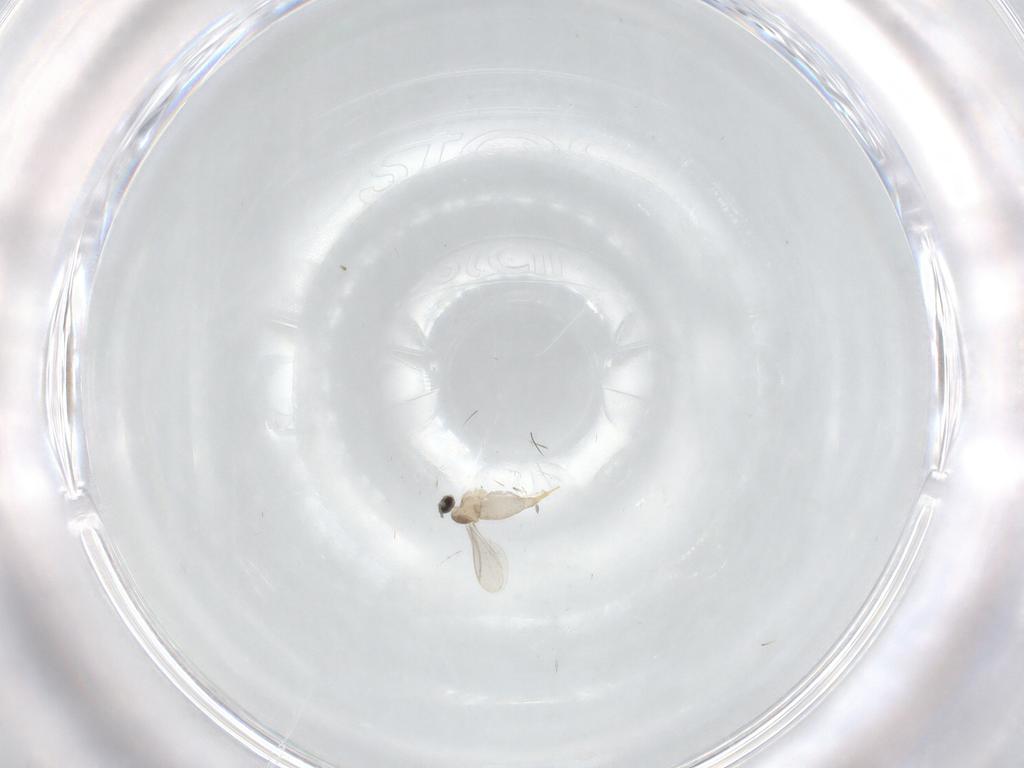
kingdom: Animalia
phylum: Arthropoda
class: Insecta
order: Diptera
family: Cecidomyiidae
